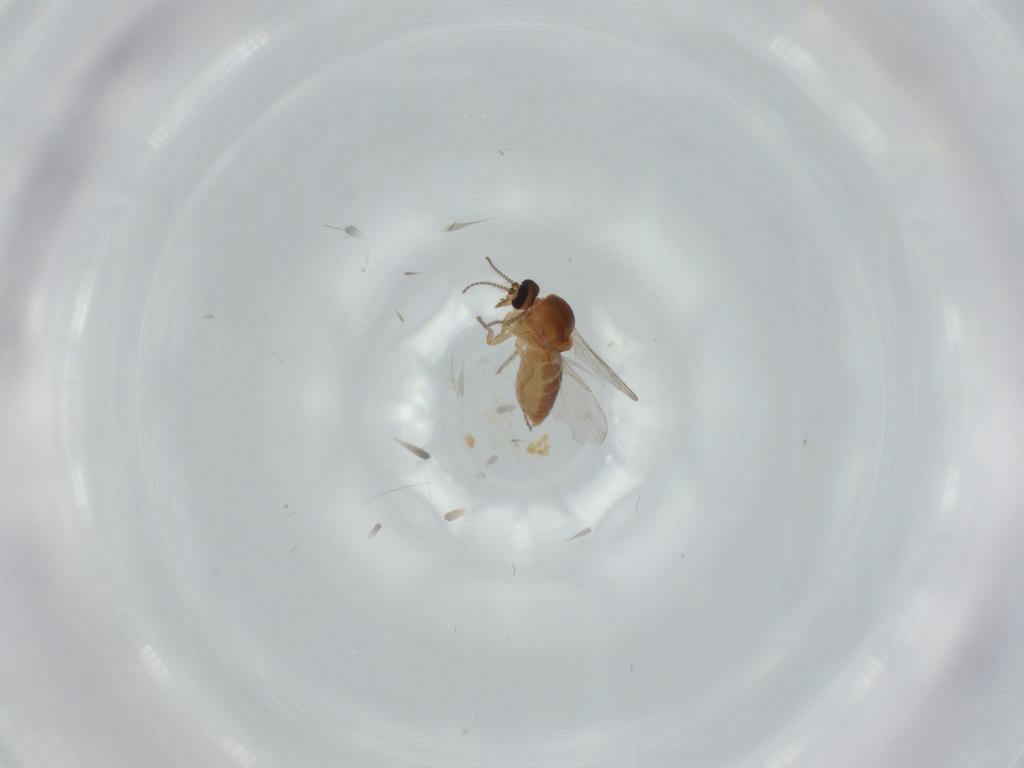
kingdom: Animalia
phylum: Arthropoda
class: Insecta
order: Diptera
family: Ceratopogonidae
